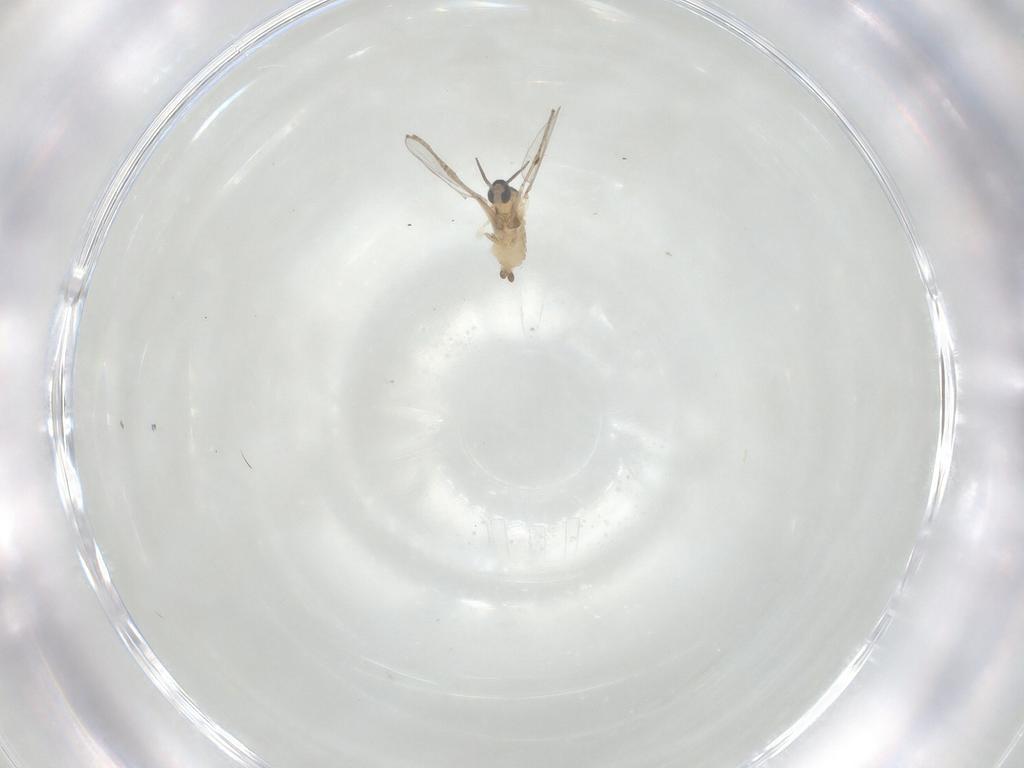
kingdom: Animalia
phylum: Arthropoda
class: Insecta
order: Diptera
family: Cecidomyiidae
